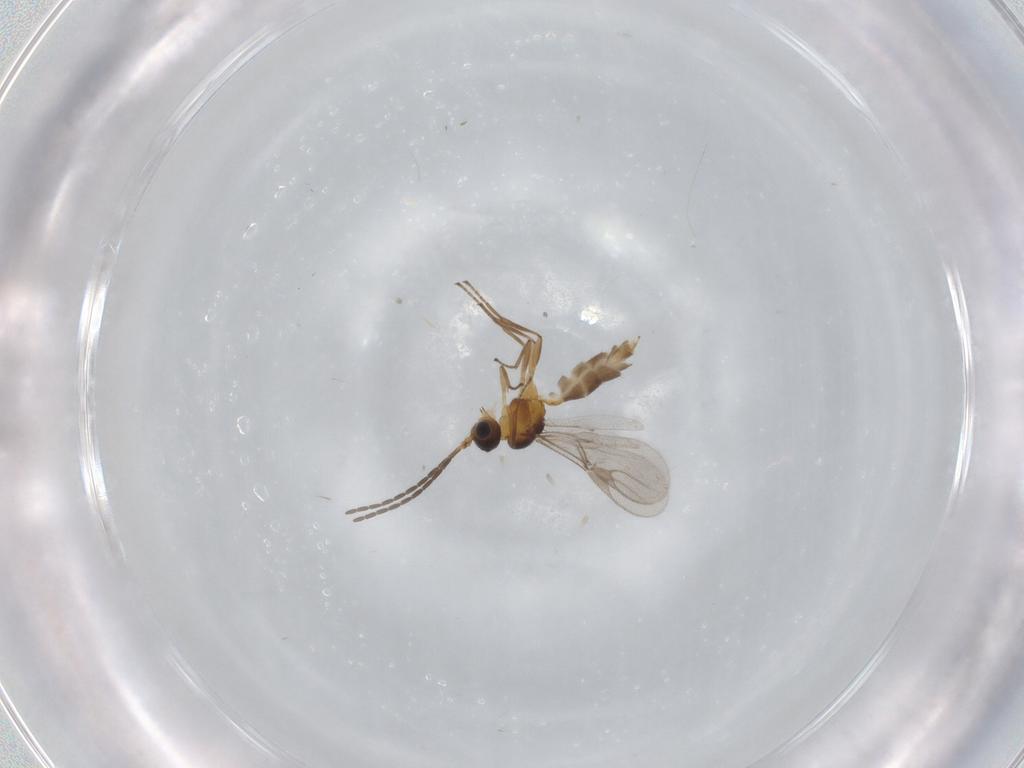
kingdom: Animalia
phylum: Arthropoda
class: Insecta
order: Hymenoptera
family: Braconidae
